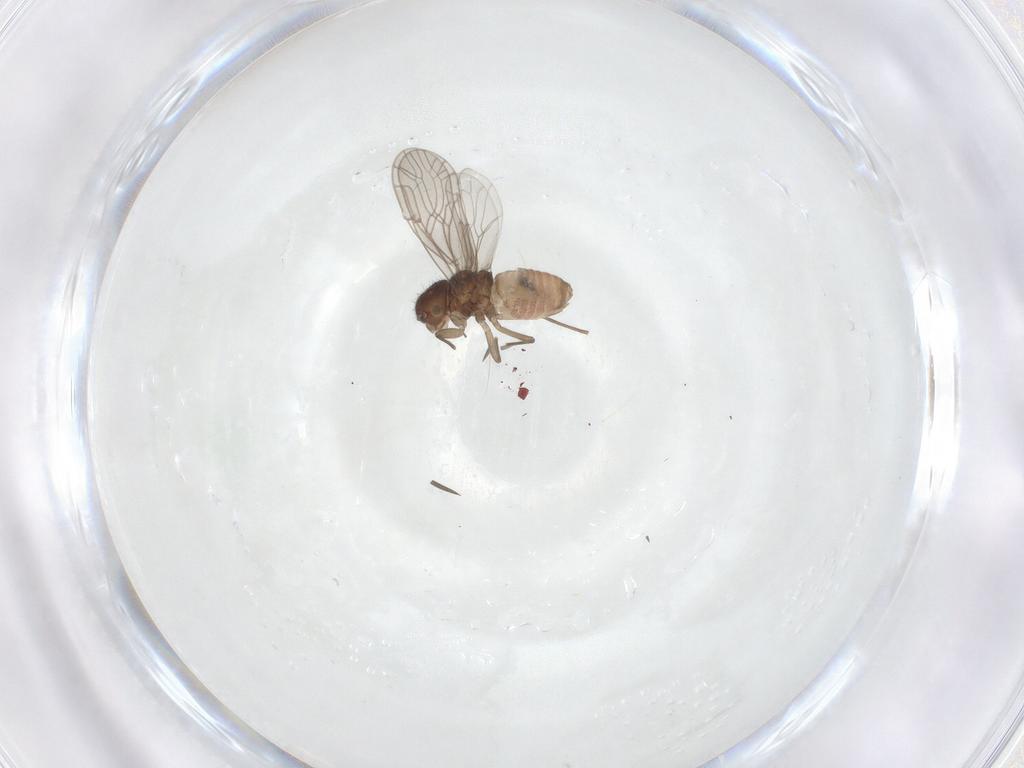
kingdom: Animalia
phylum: Arthropoda
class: Insecta
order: Psocodea
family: Ectopsocidae
